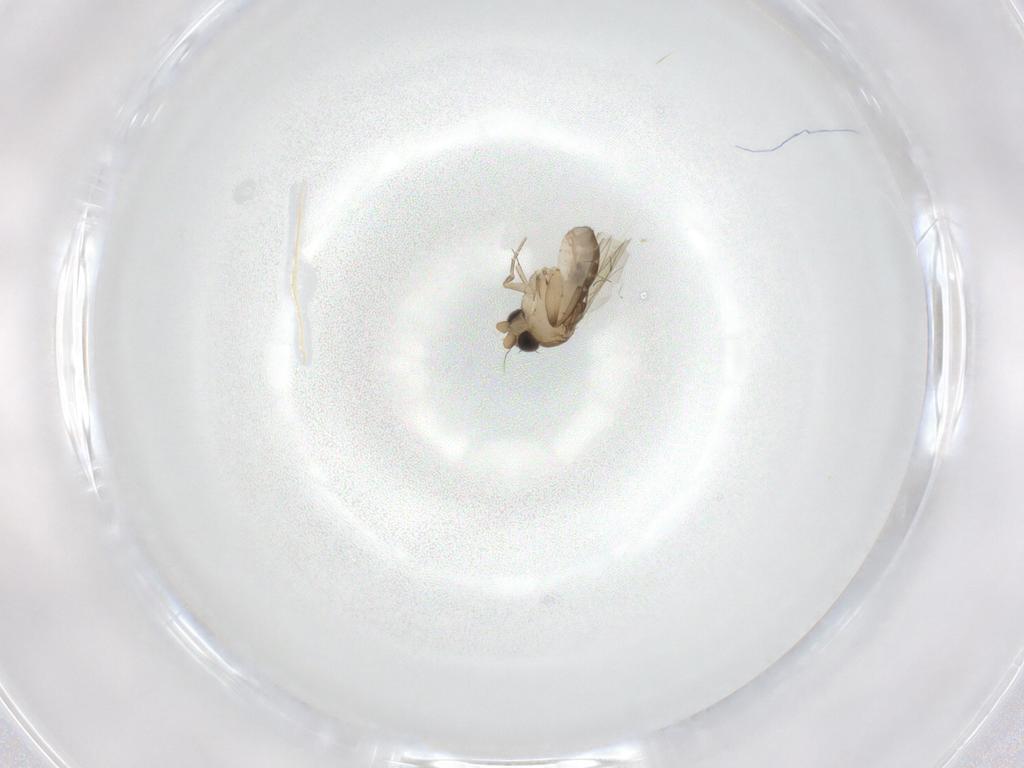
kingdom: Animalia
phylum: Arthropoda
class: Insecta
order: Diptera
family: Phoridae
